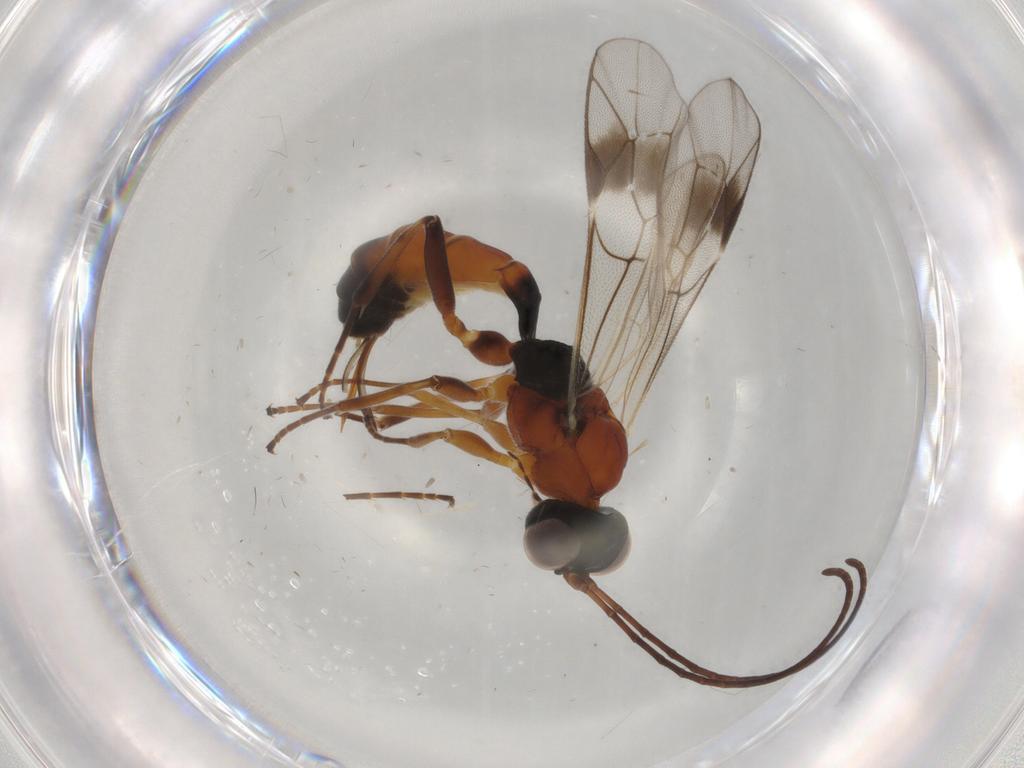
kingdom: Animalia
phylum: Arthropoda
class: Insecta
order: Hymenoptera
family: Ichneumonidae
